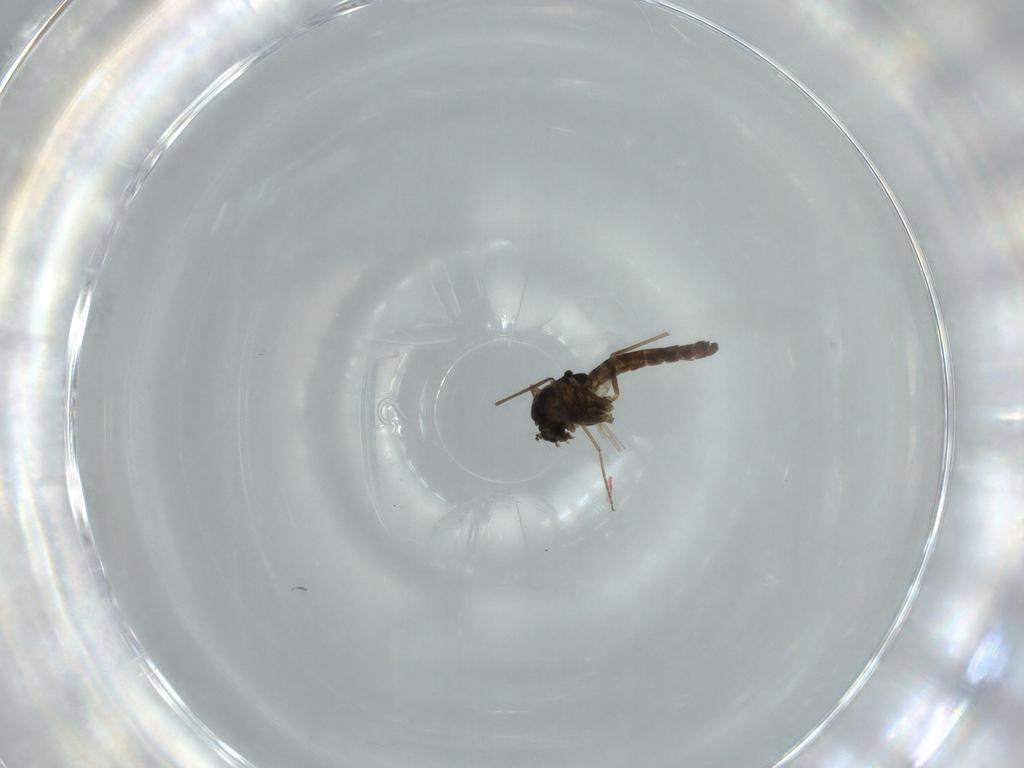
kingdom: Animalia
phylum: Arthropoda
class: Insecta
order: Diptera
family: Chironomidae
